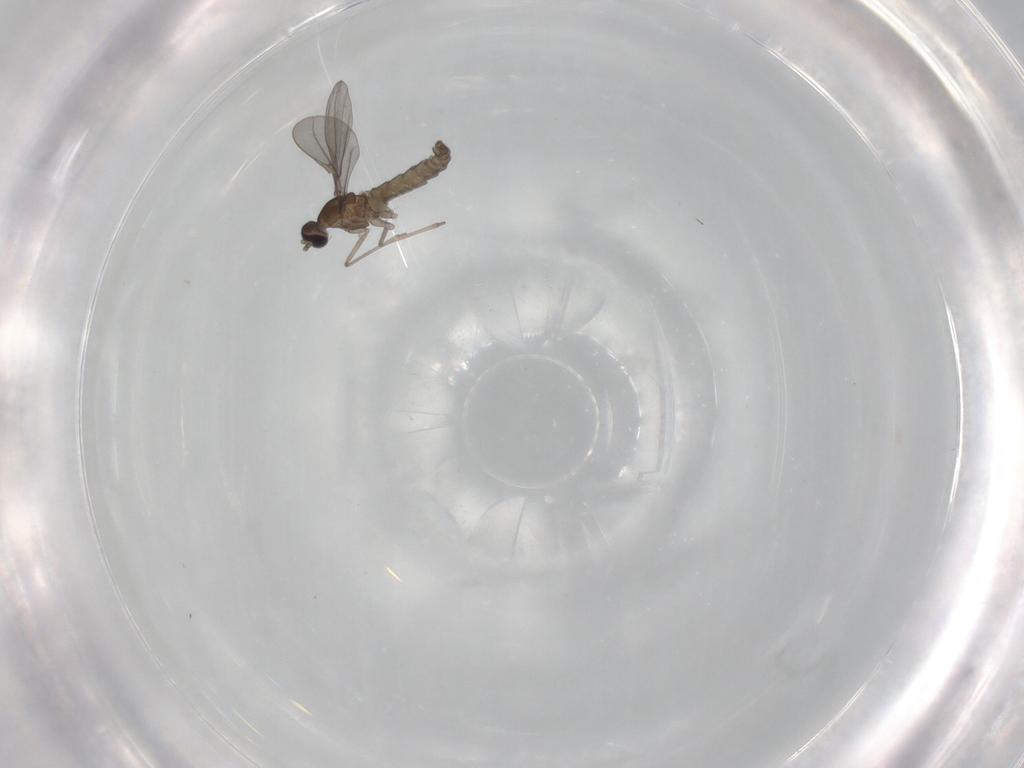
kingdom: Animalia
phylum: Arthropoda
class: Insecta
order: Diptera
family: Cecidomyiidae
